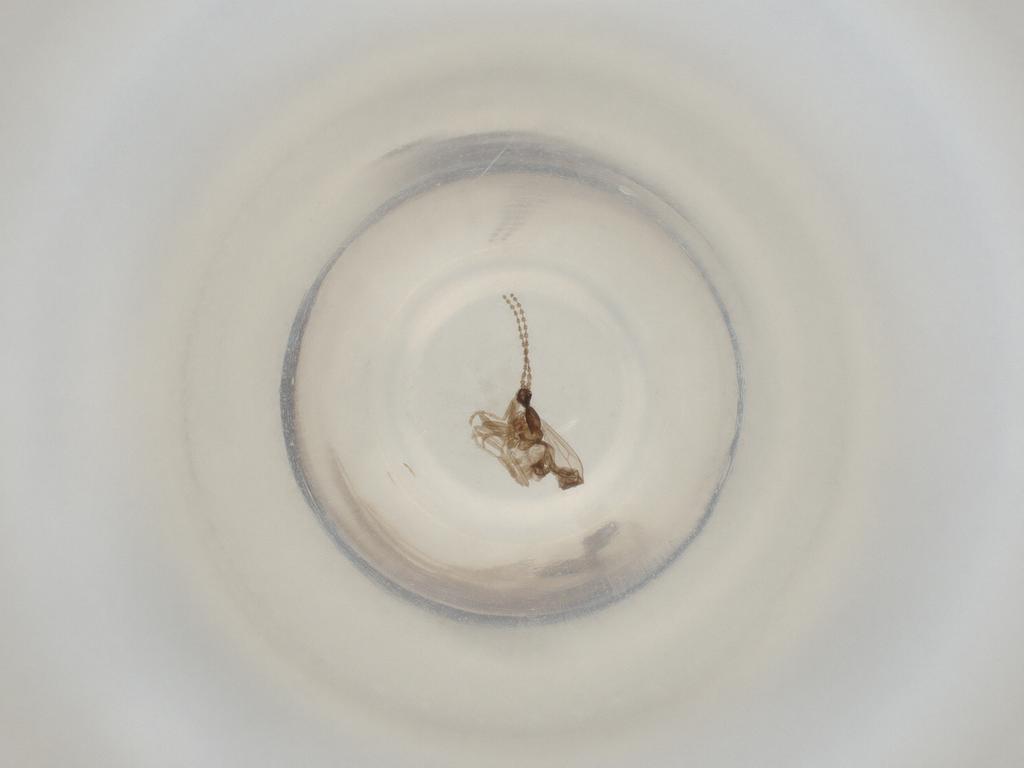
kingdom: Animalia
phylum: Arthropoda
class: Insecta
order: Diptera
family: Cecidomyiidae
